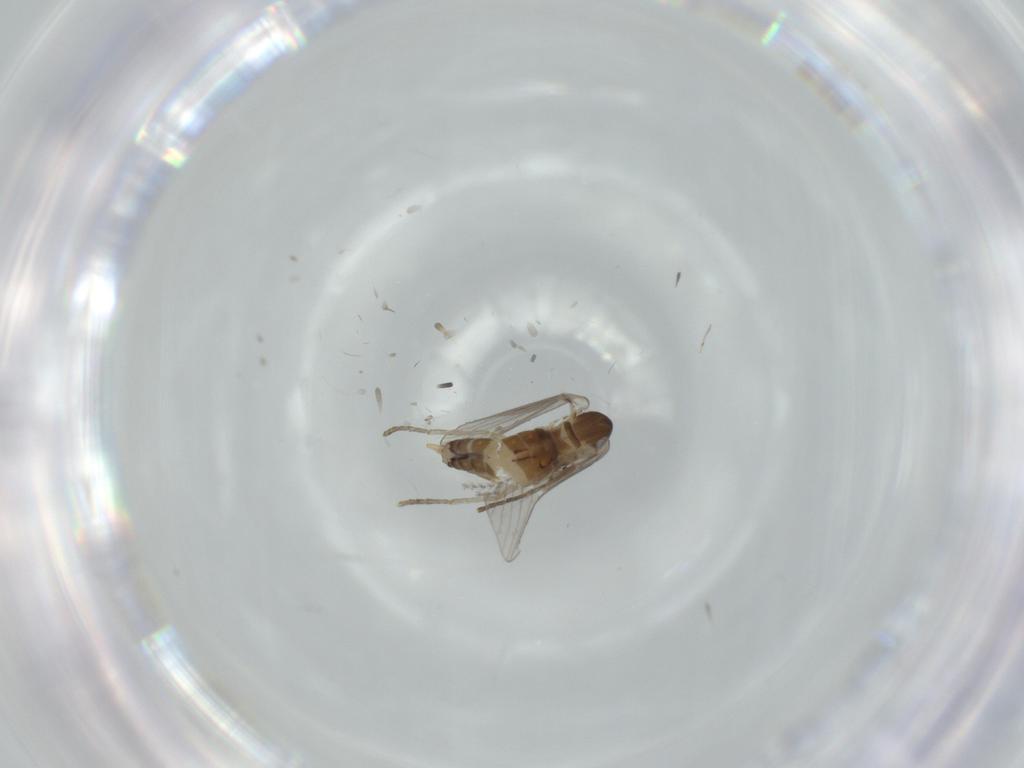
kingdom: Animalia
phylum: Arthropoda
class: Insecta
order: Diptera
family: Psychodidae
